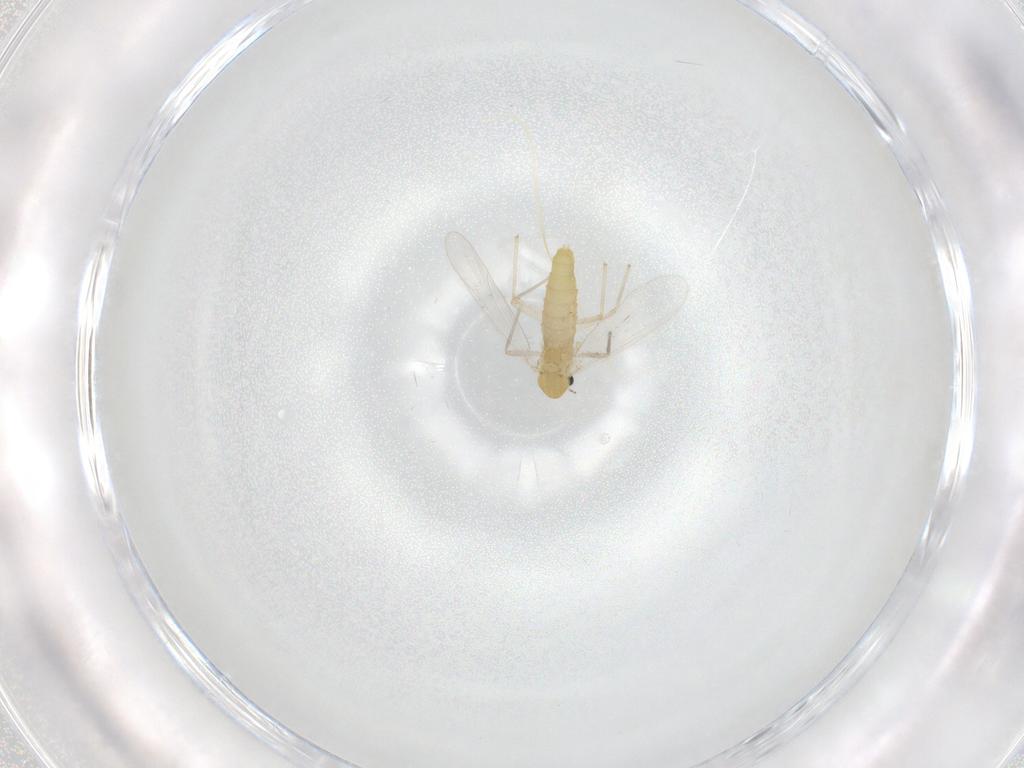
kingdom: Animalia
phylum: Arthropoda
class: Insecta
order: Diptera
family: Chironomidae
